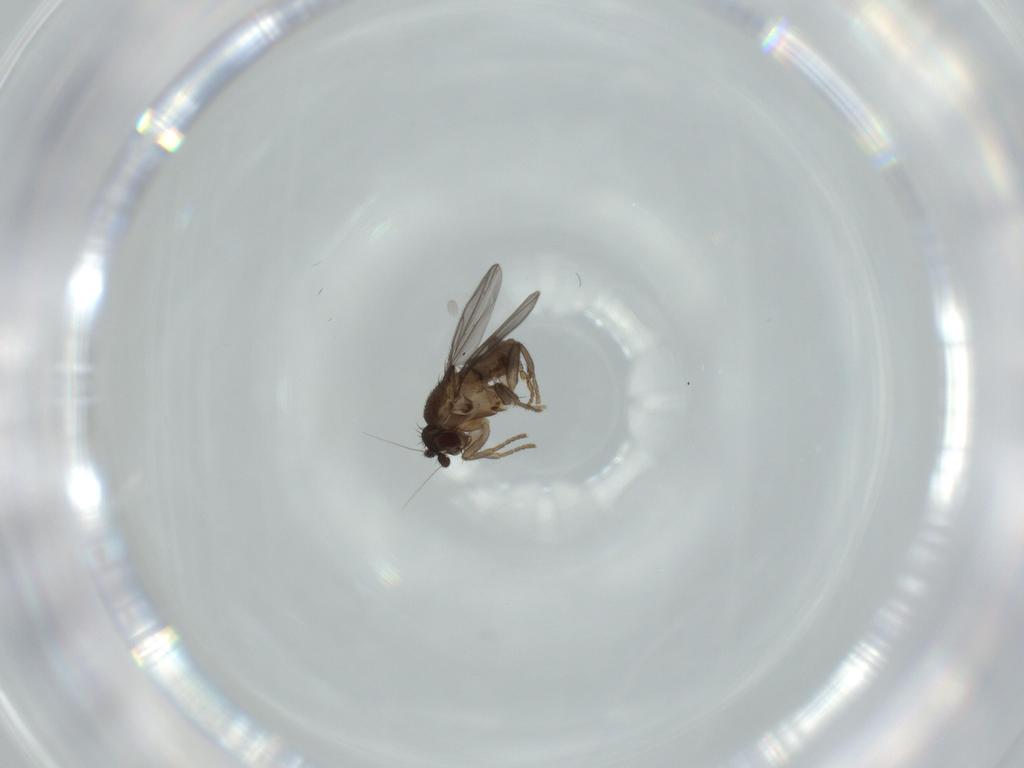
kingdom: Animalia
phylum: Arthropoda
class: Insecta
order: Diptera
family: Sphaeroceridae
